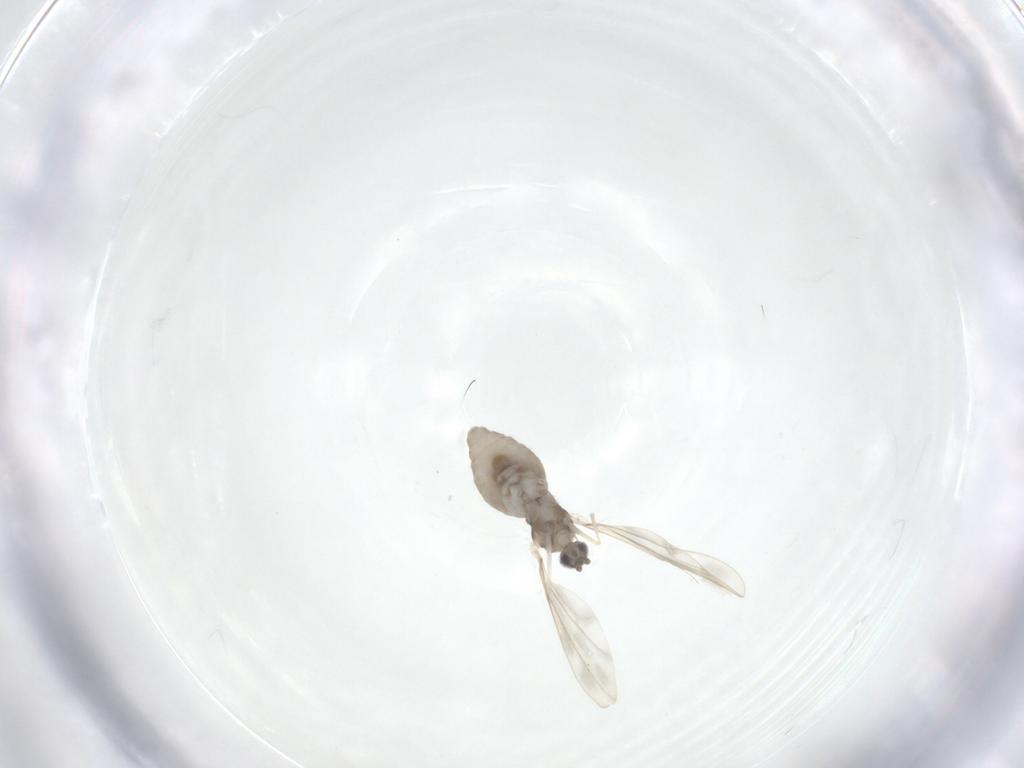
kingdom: Animalia
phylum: Arthropoda
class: Insecta
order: Diptera
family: Cecidomyiidae
